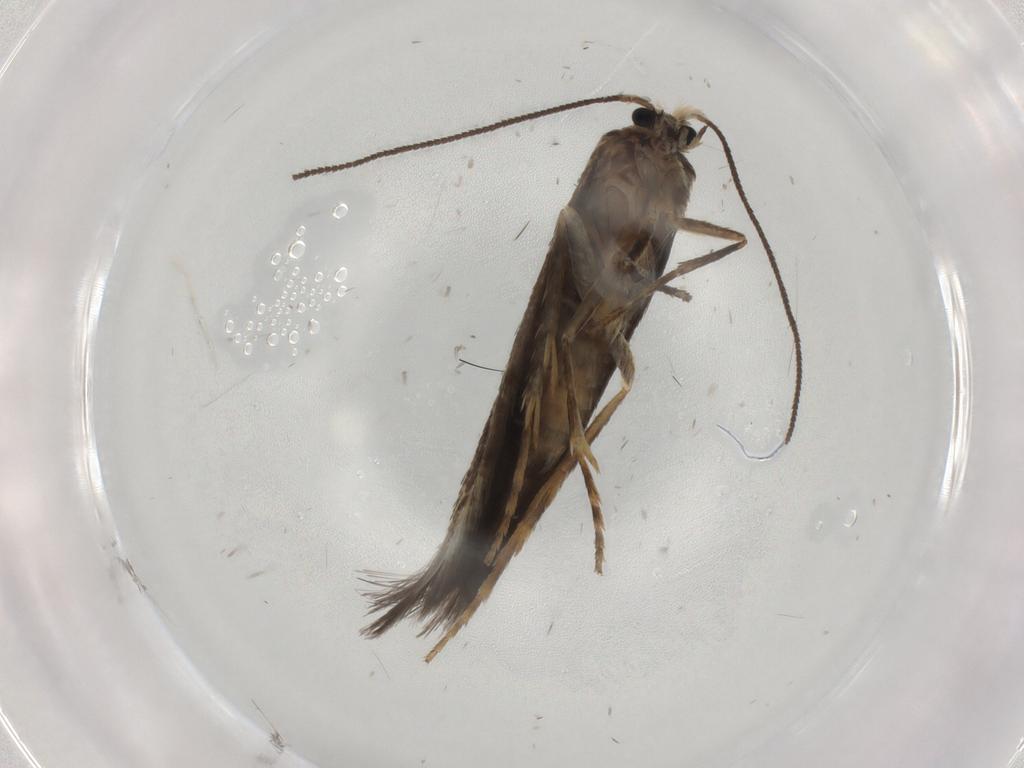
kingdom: Animalia
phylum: Arthropoda
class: Insecta
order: Lepidoptera
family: Nepticulidae
